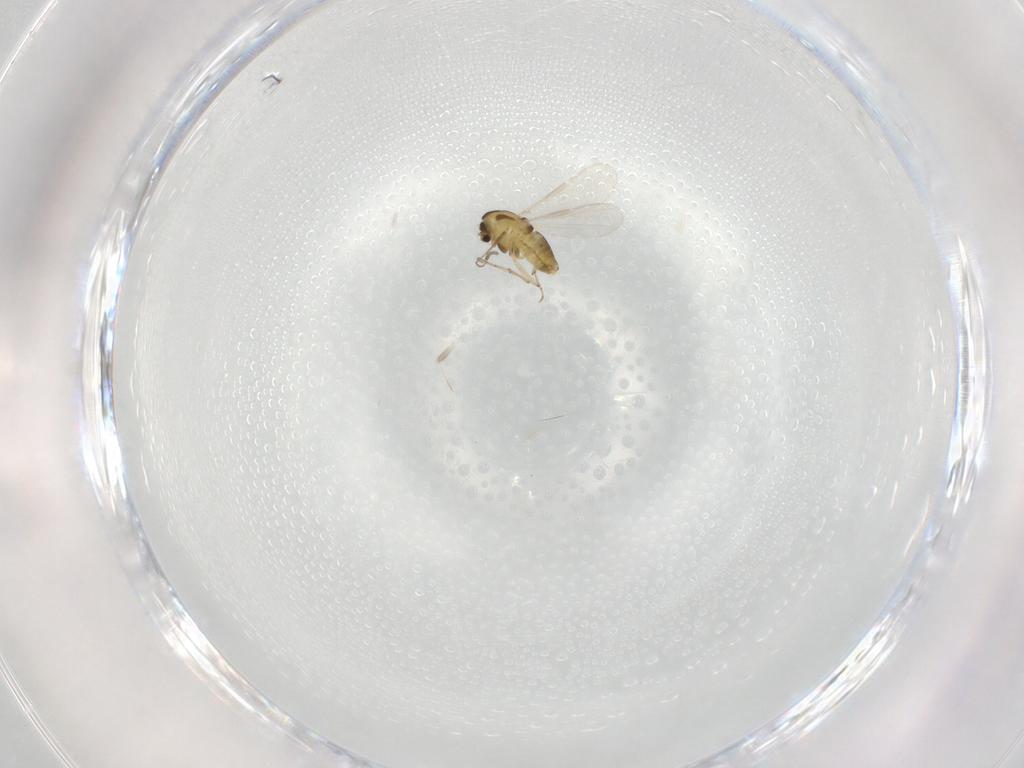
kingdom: Animalia
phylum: Arthropoda
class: Insecta
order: Diptera
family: Chironomidae
